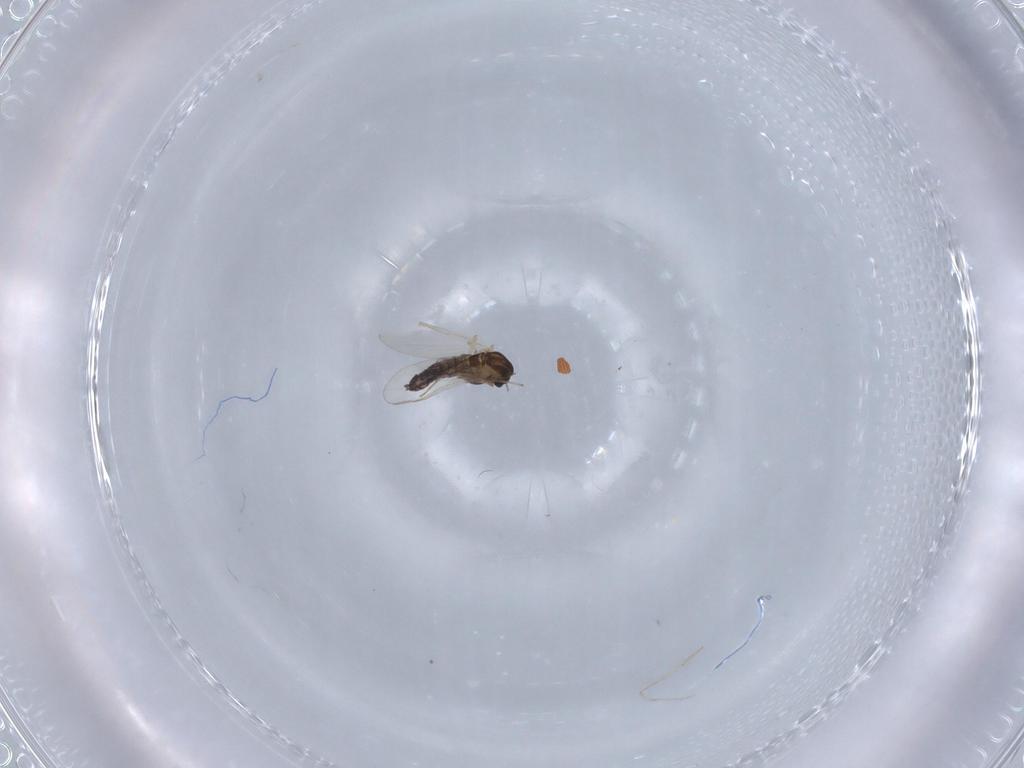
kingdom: Animalia
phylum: Arthropoda
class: Insecta
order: Diptera
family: Chironomidae
